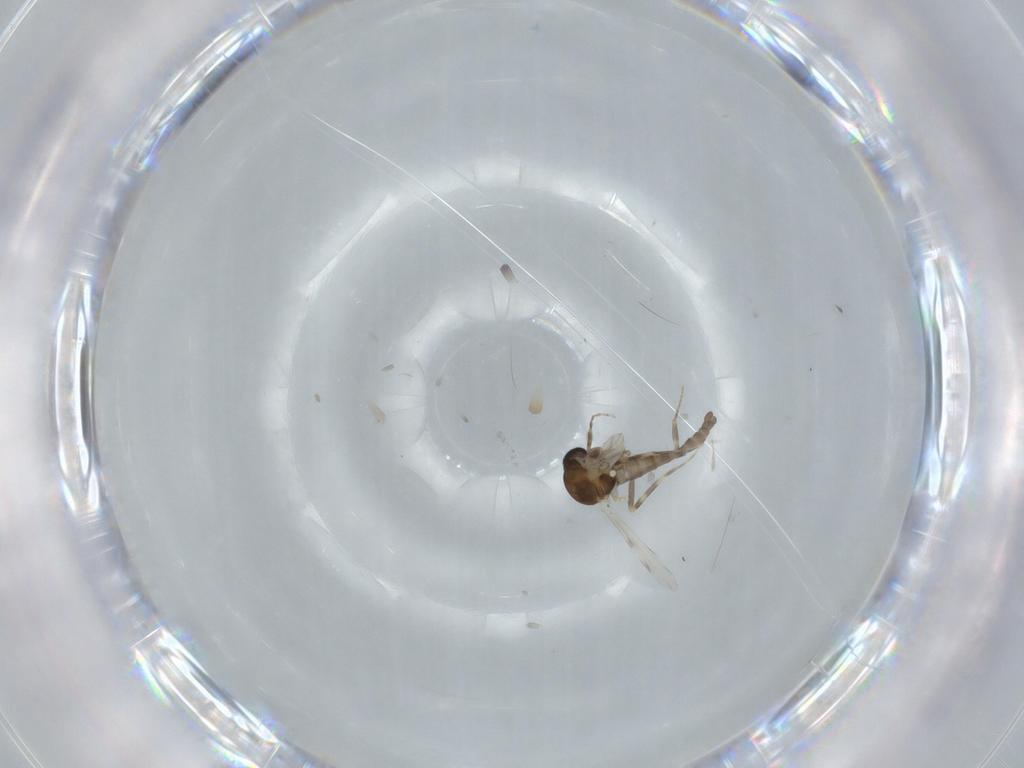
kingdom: Animalia
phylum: Arthropoda
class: Insecta
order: Diptera
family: Ceratopogonidae
